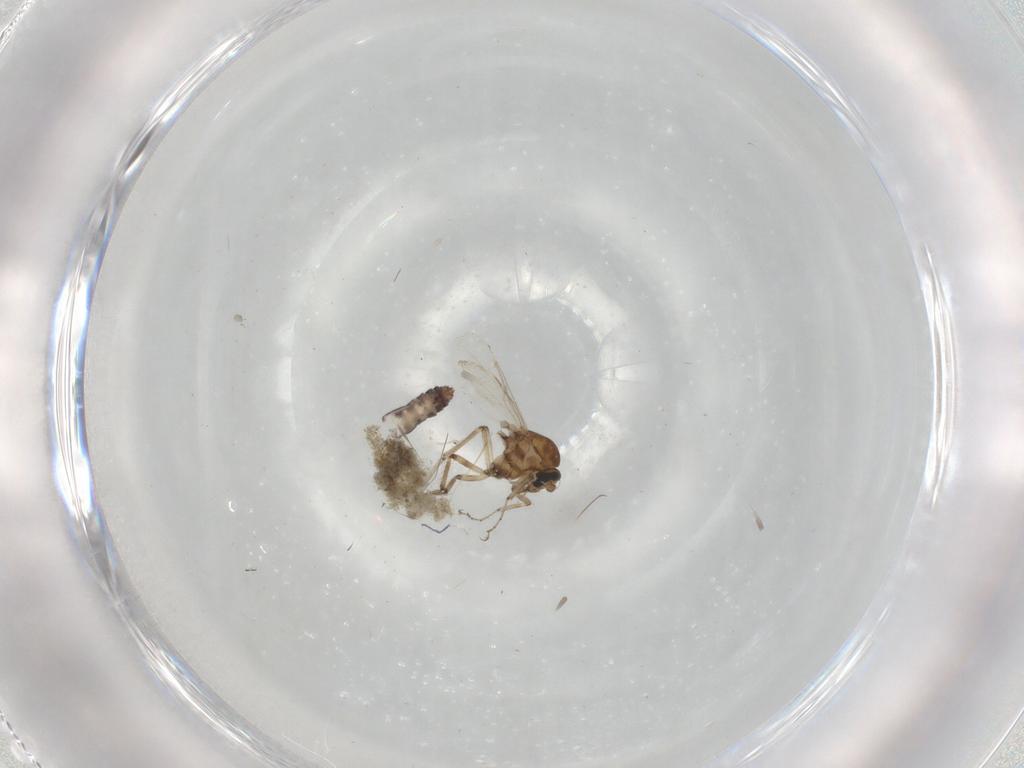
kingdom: Animalia
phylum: Arthropoda
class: Insecta
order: Diptera
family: Ceratopogonidae
